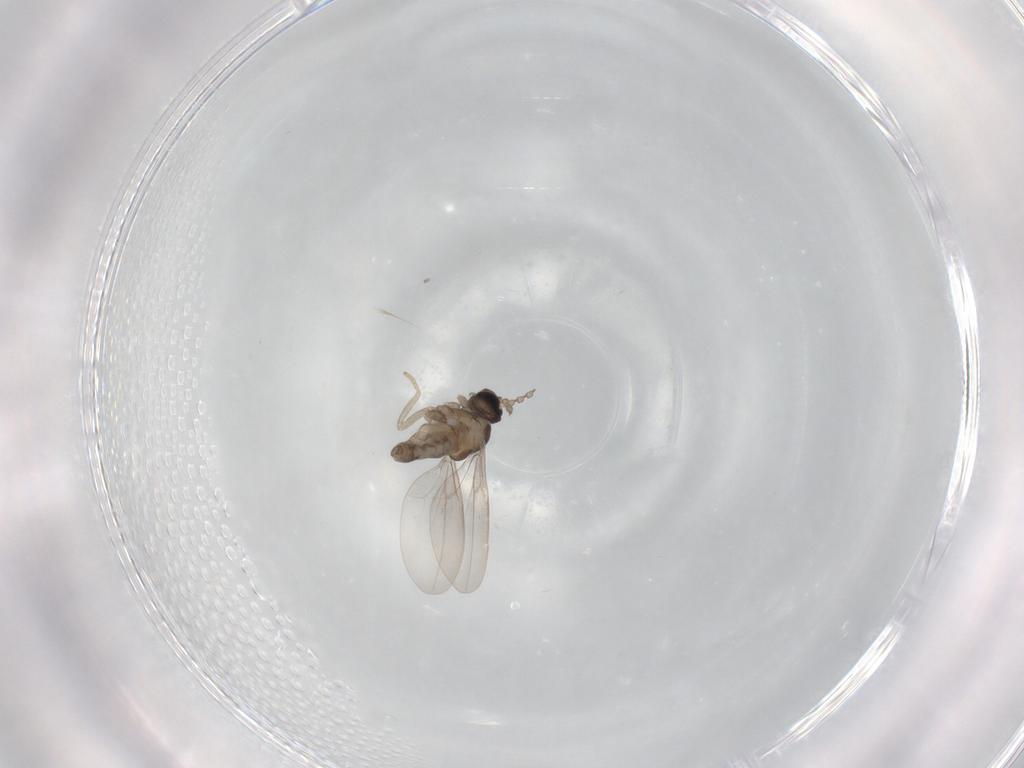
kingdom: Animalia
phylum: Arthropoda
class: Insecta
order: Diptera
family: Cecidomyiidae
